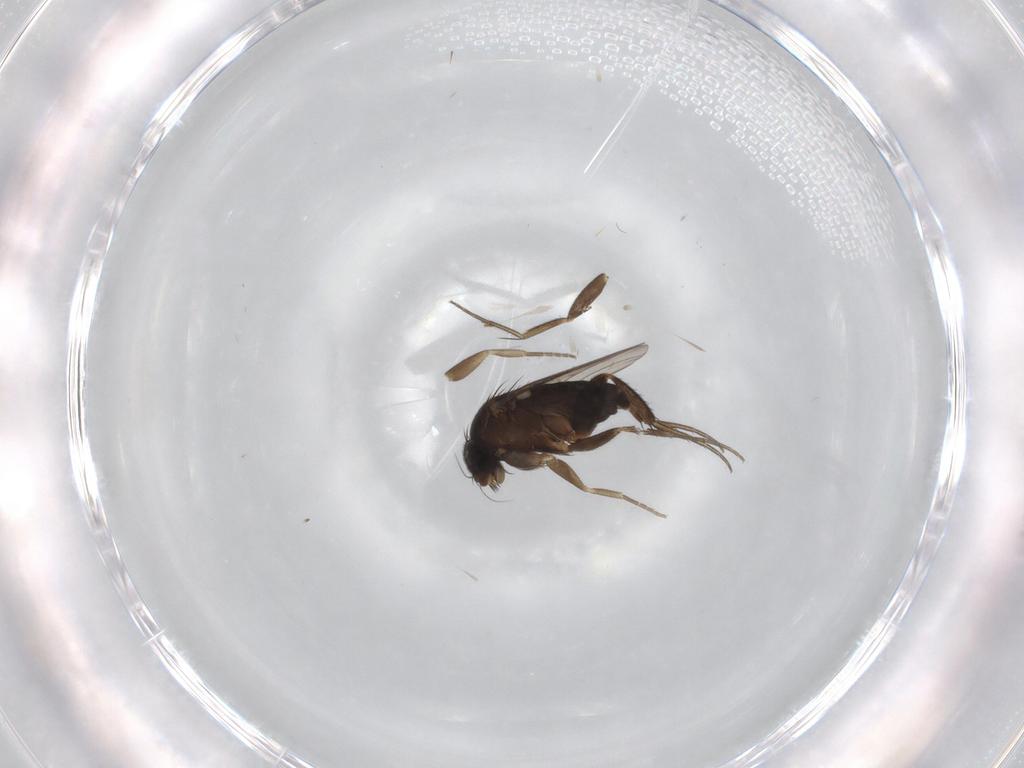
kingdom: Animalia
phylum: Arthropoda
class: Insecta
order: Diptera
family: Phoridae
